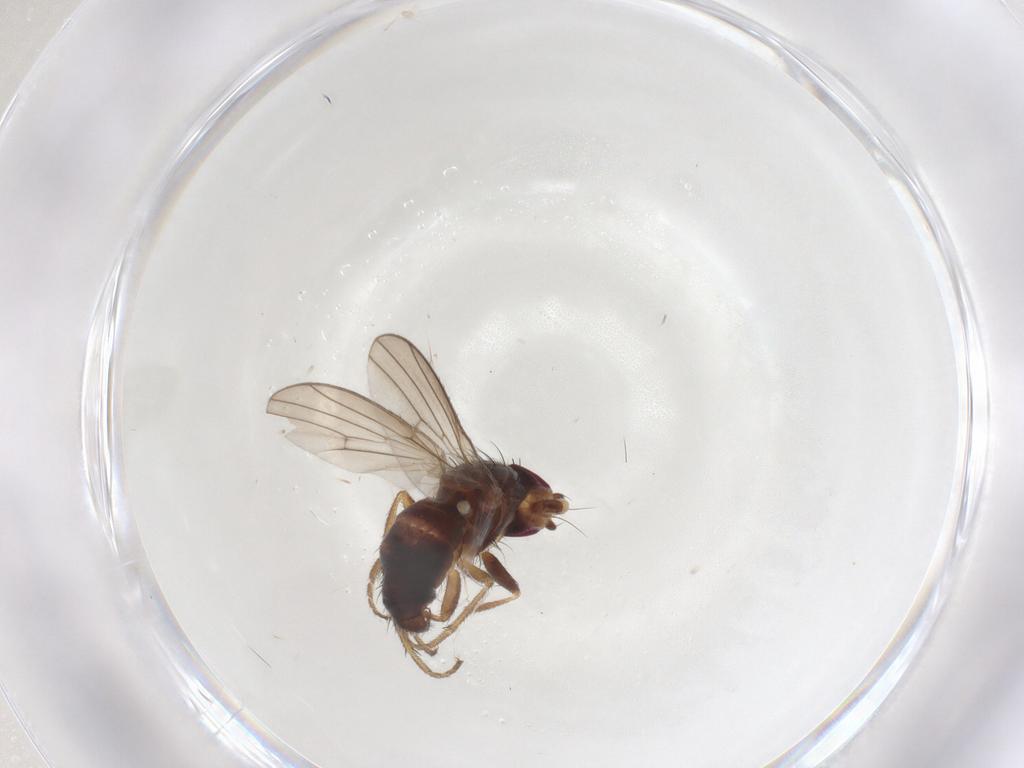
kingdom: Animalia
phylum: Arthropoda
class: Insecta
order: Diptera
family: Heleomyzidae
